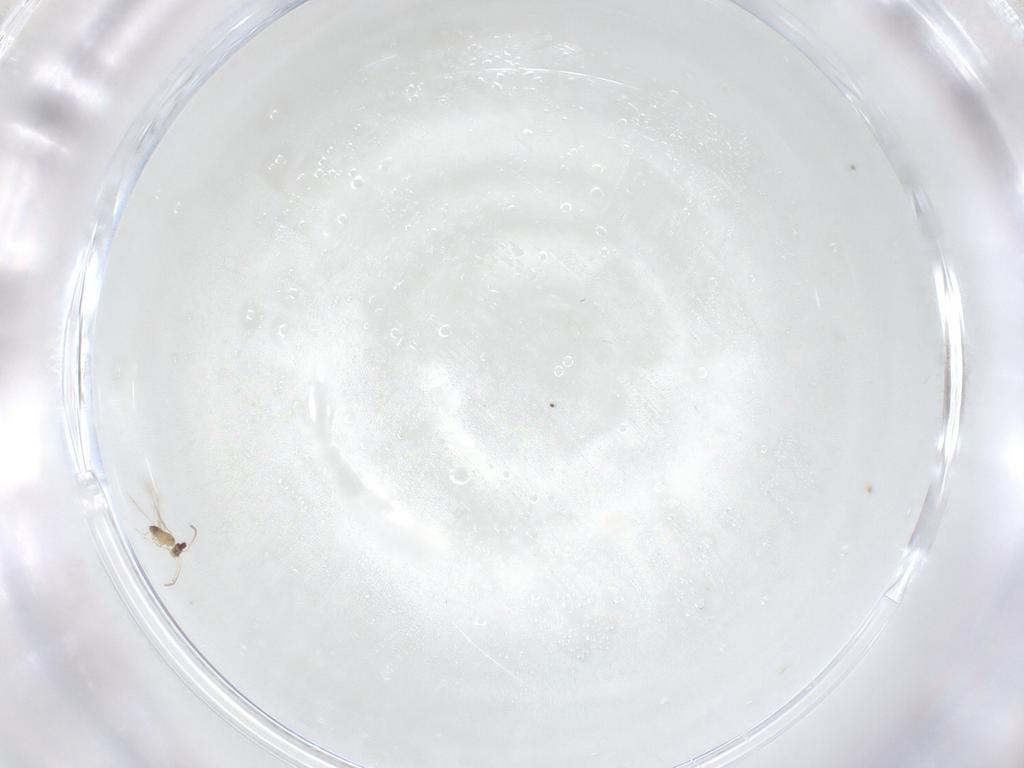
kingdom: Animalia
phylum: Arthropoda
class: Insecta
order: Hymenoptera
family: Mymaridae
